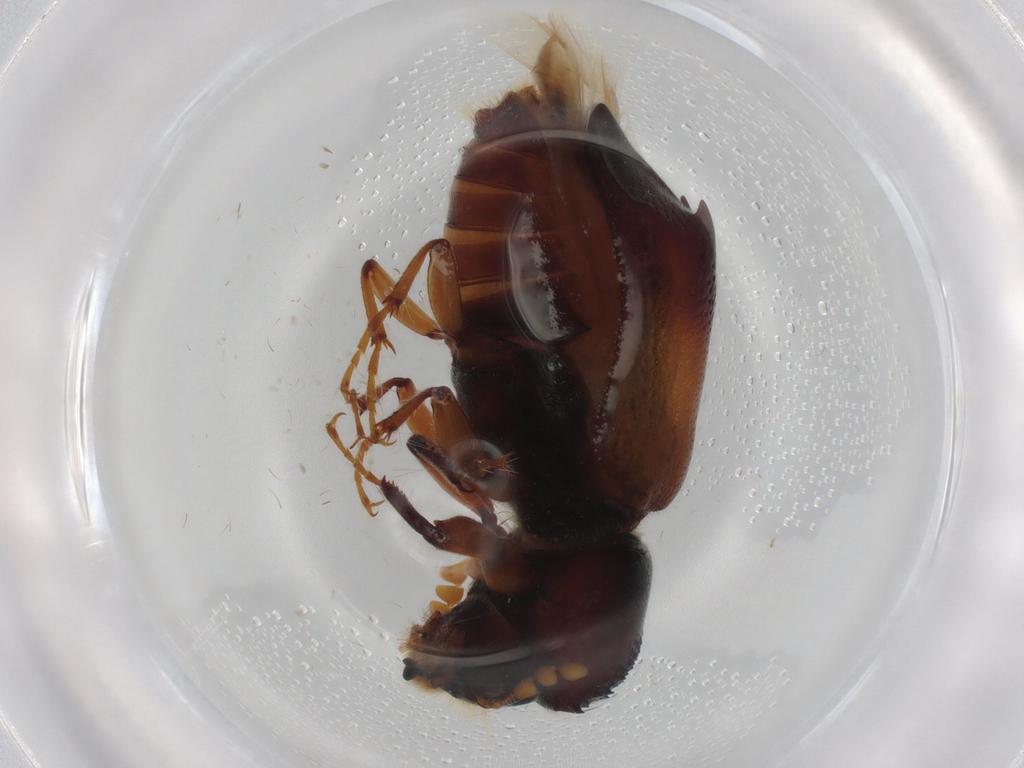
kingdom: Animalia
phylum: Arthropoda
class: Insecta
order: Coleoptera
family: Bostrichidae
